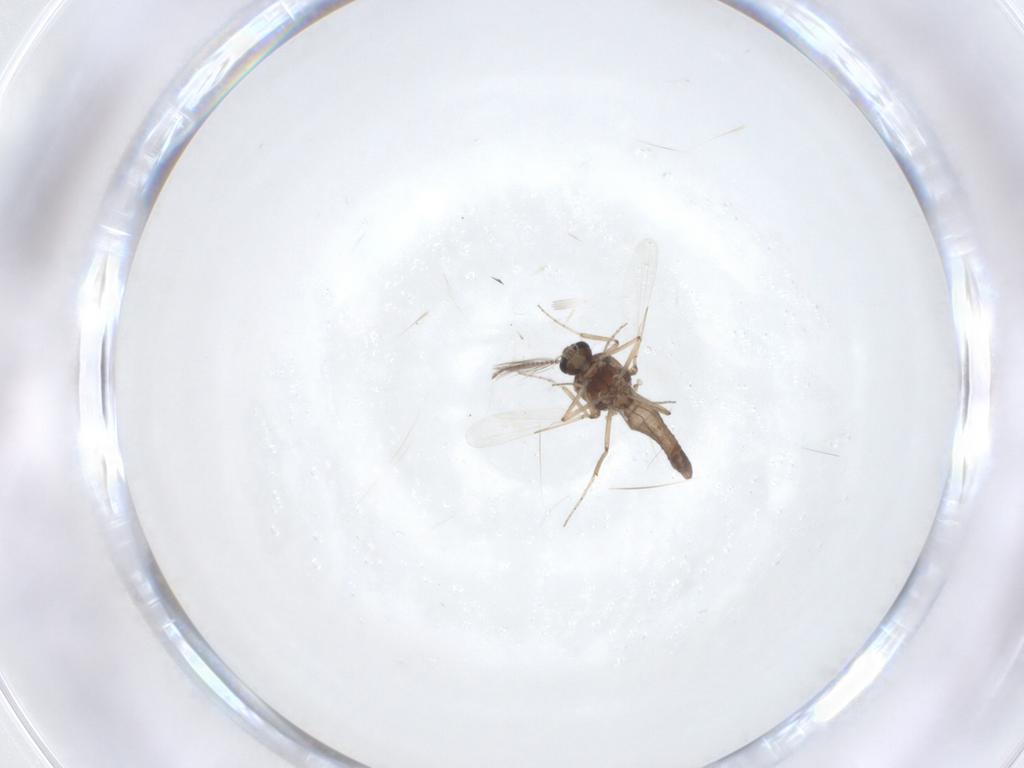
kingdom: Animalia
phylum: Arthropoda
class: Insecta
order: Diptera
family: Ceratopogonidae
